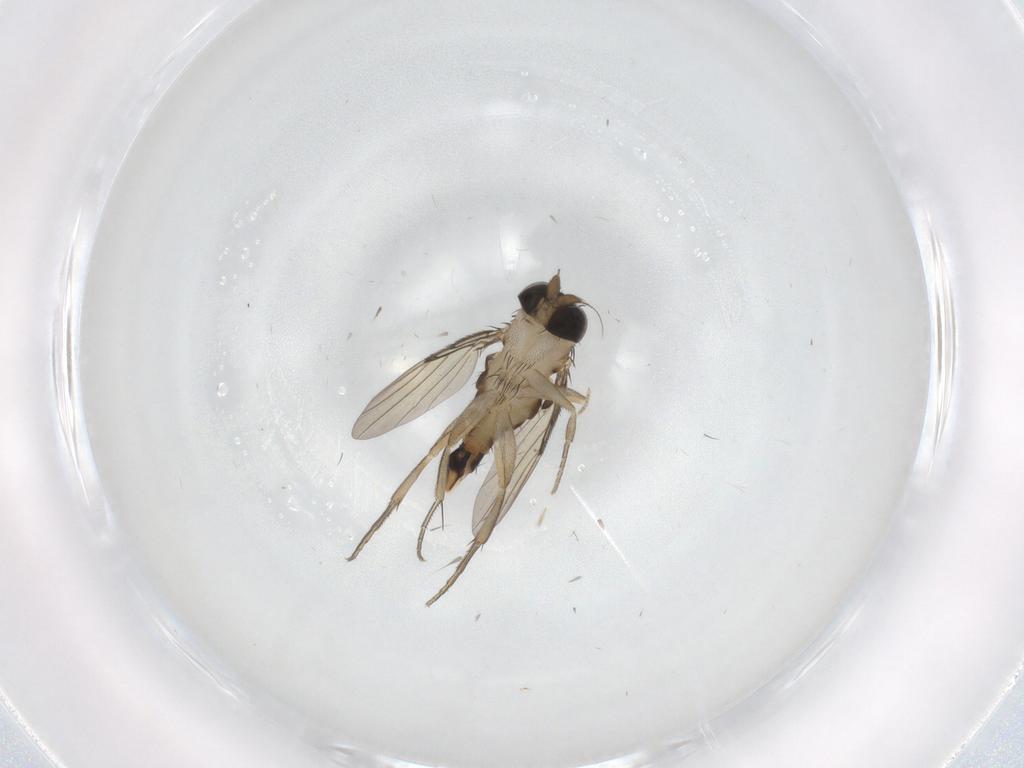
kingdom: Animalia
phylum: Arthropoda
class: Insecta
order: Diptera
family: Phoridae
